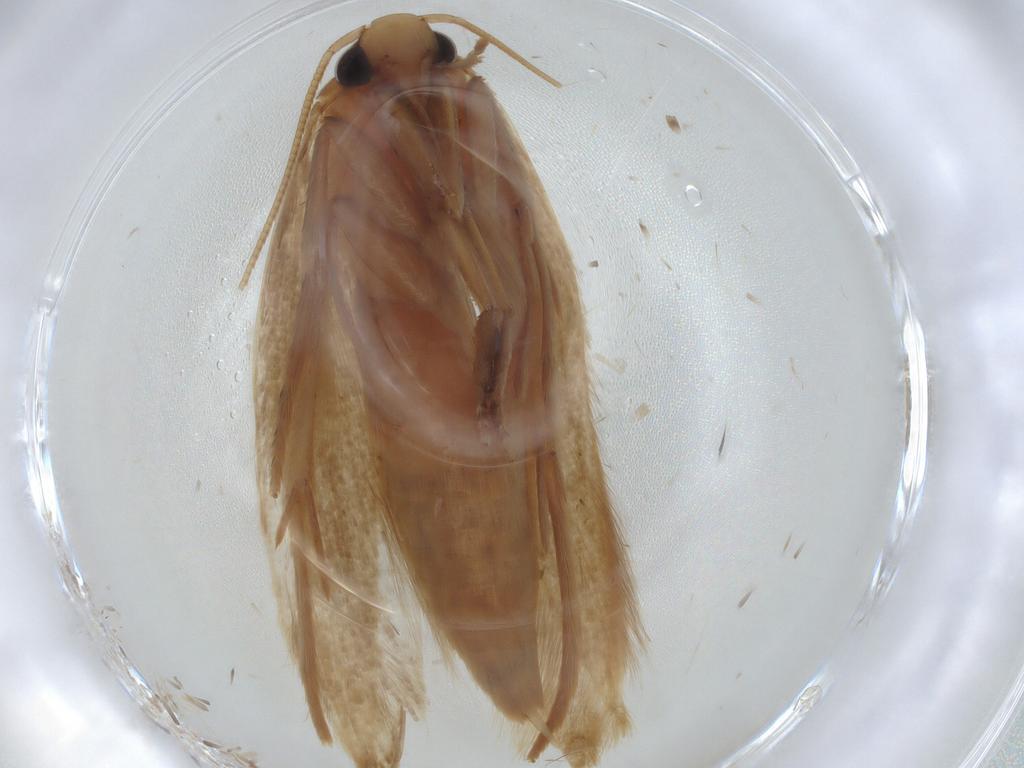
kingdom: Animalia
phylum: Arthropoda
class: Insecta
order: Lepidoptera
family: Tineidae
